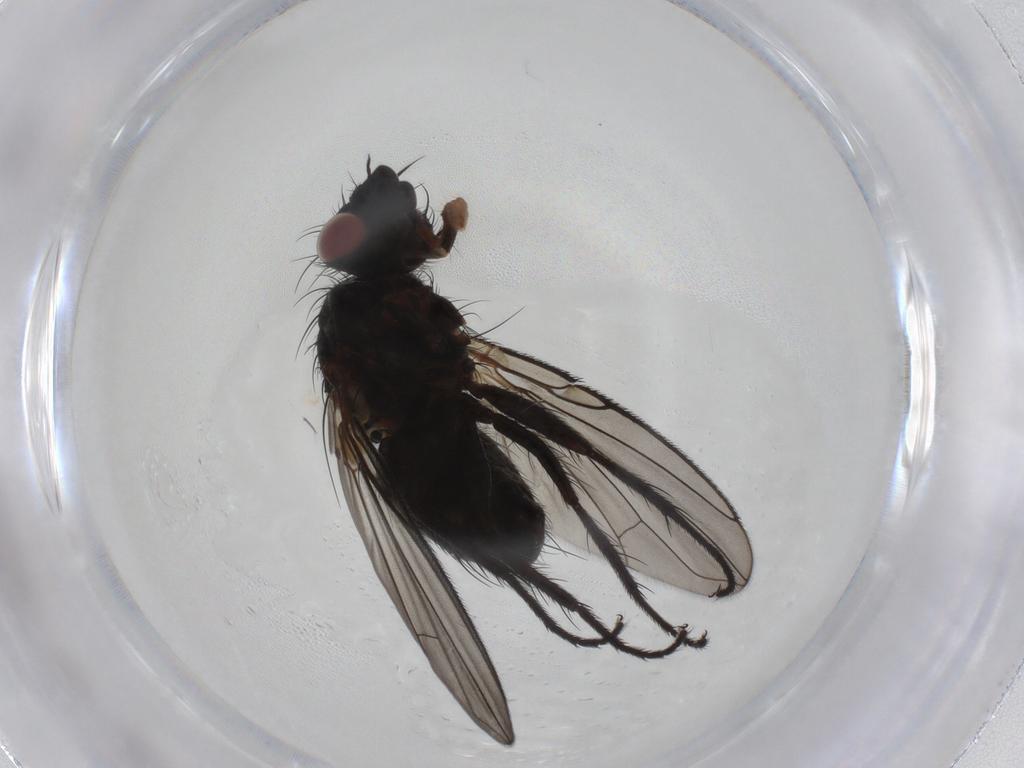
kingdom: Animalia
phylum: Arthropoda
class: Insecta
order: Diptera
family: Tachinidae
